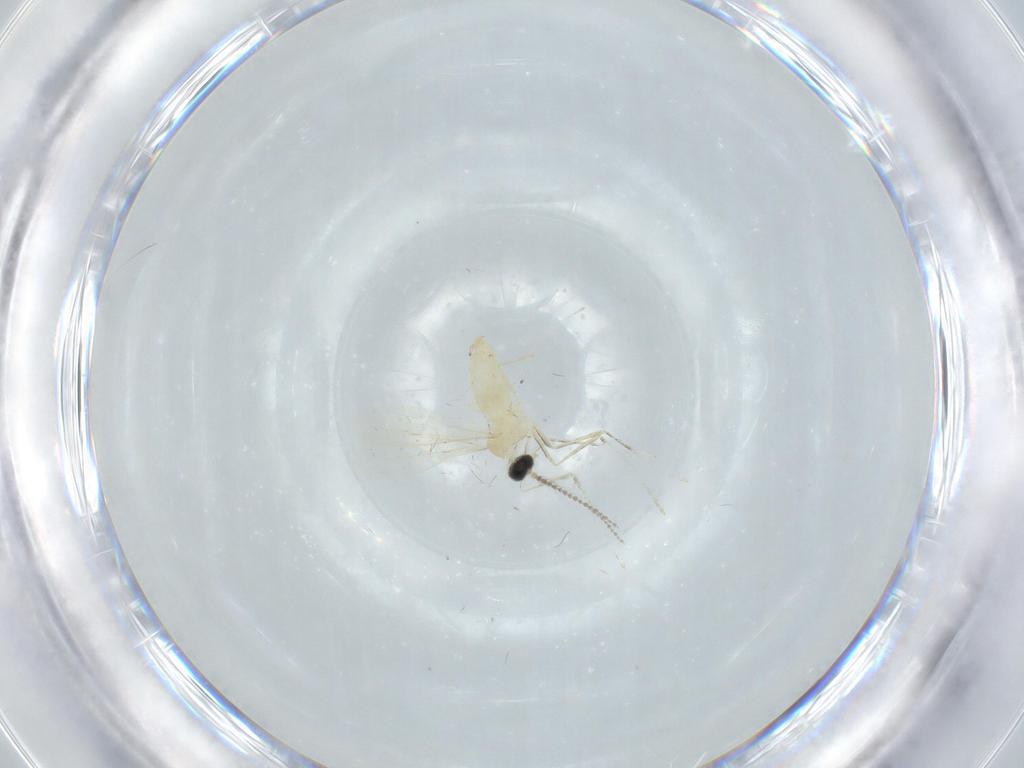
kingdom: Animalia
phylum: Arthropoda
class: Insecta
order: Diptera
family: Cecidomyiidae
